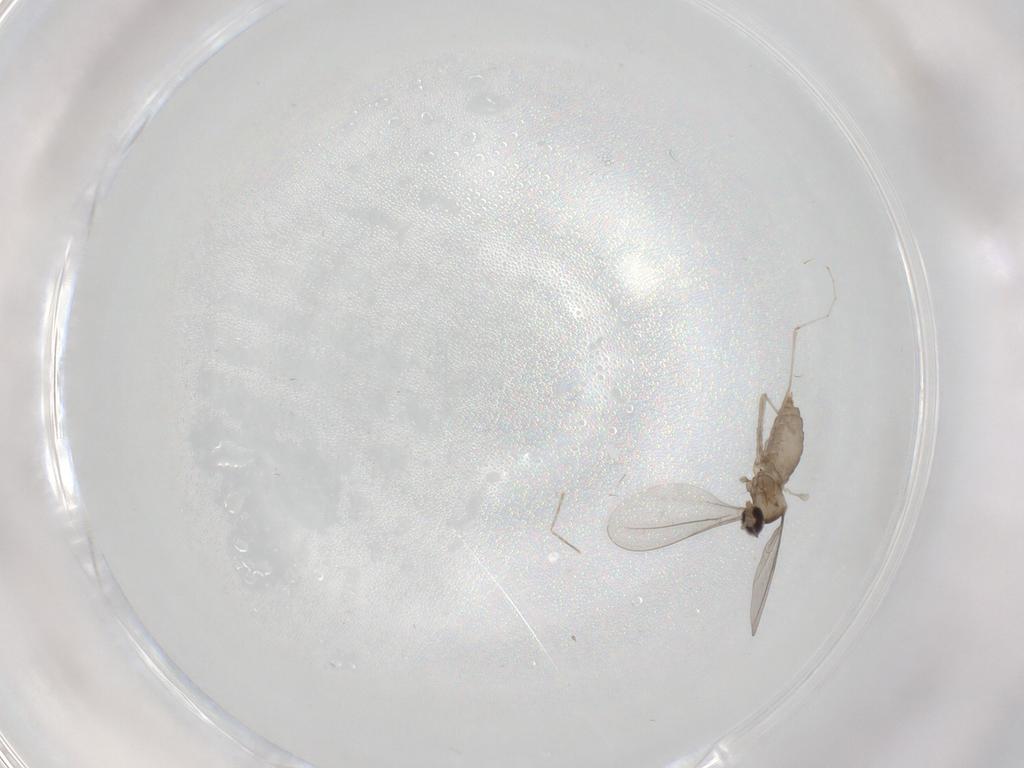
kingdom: Animalia
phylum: Arthropoda
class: Insecta
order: Diptera
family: Cecidomyiidae
